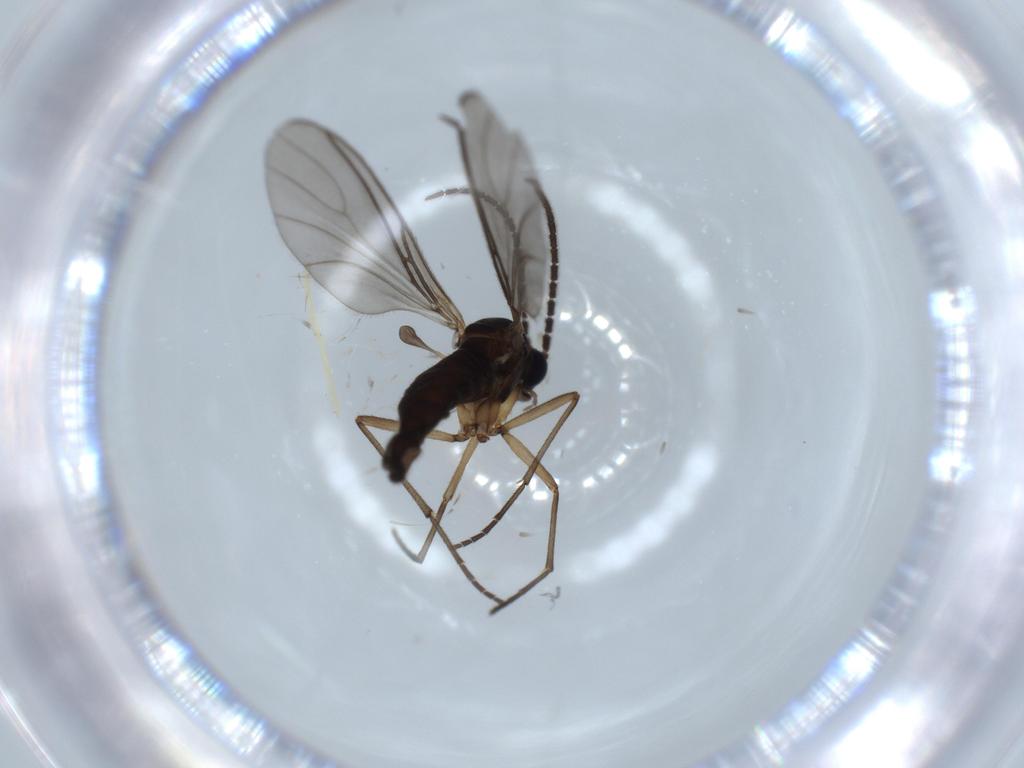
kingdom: Animalia
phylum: Arthropoda
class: Insecta
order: Diptera
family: Sciaridae
